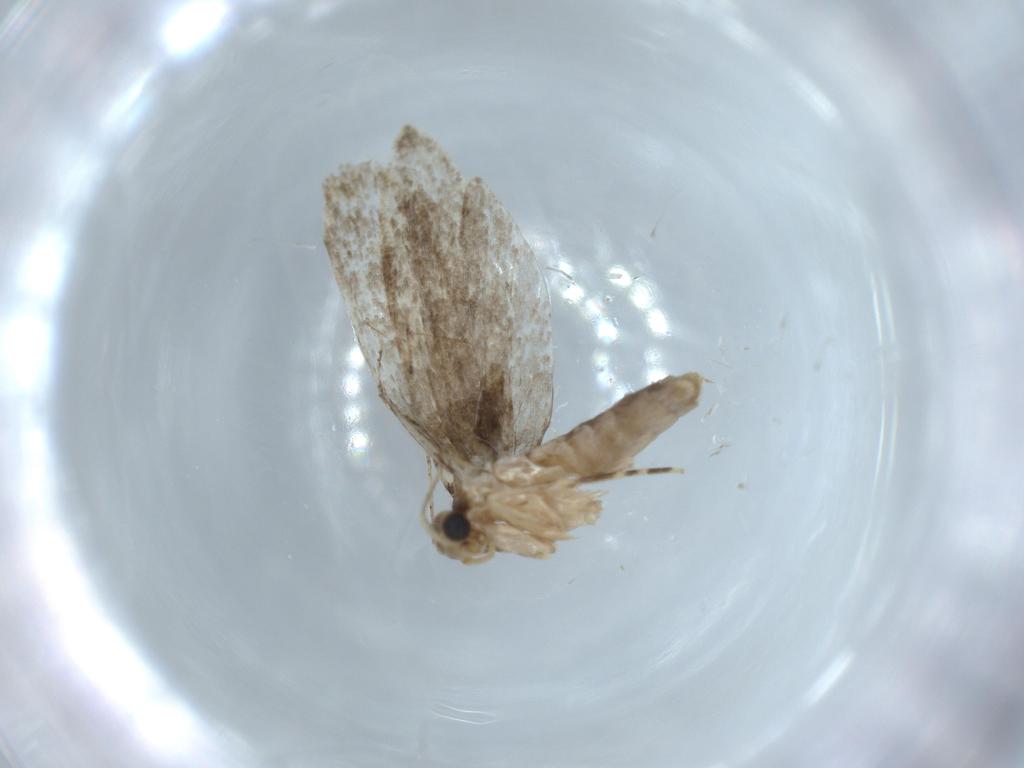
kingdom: Animalia
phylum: Arthropoda
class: Insecta
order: Lepidoptera
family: Tineidae
